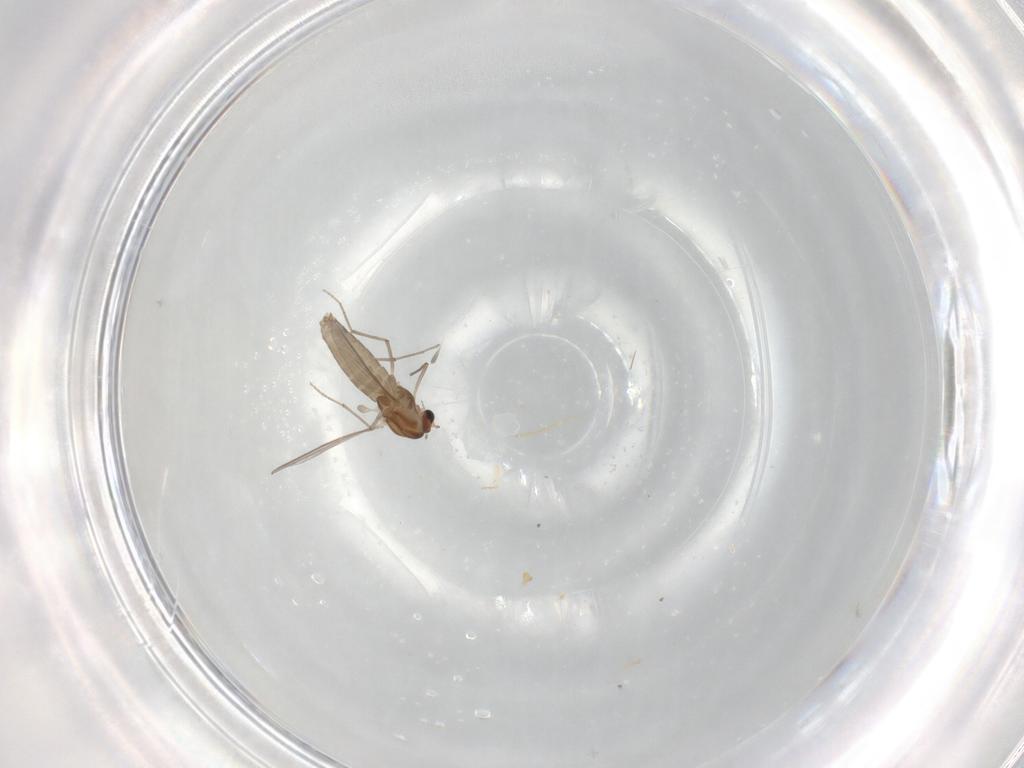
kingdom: Animalia
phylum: Arthropoda
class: Insecta
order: Diptera
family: Chironomidae
